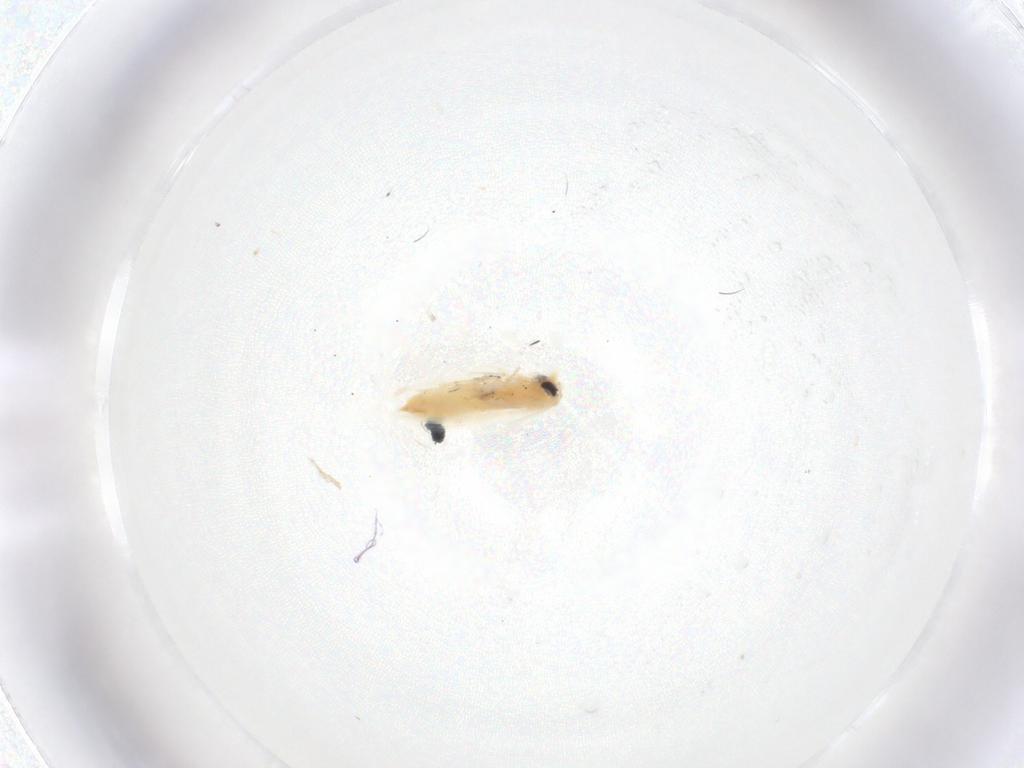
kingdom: Animalia
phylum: Arthropoda
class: Insecta
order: Lepidoptera
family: Gelechiidae
